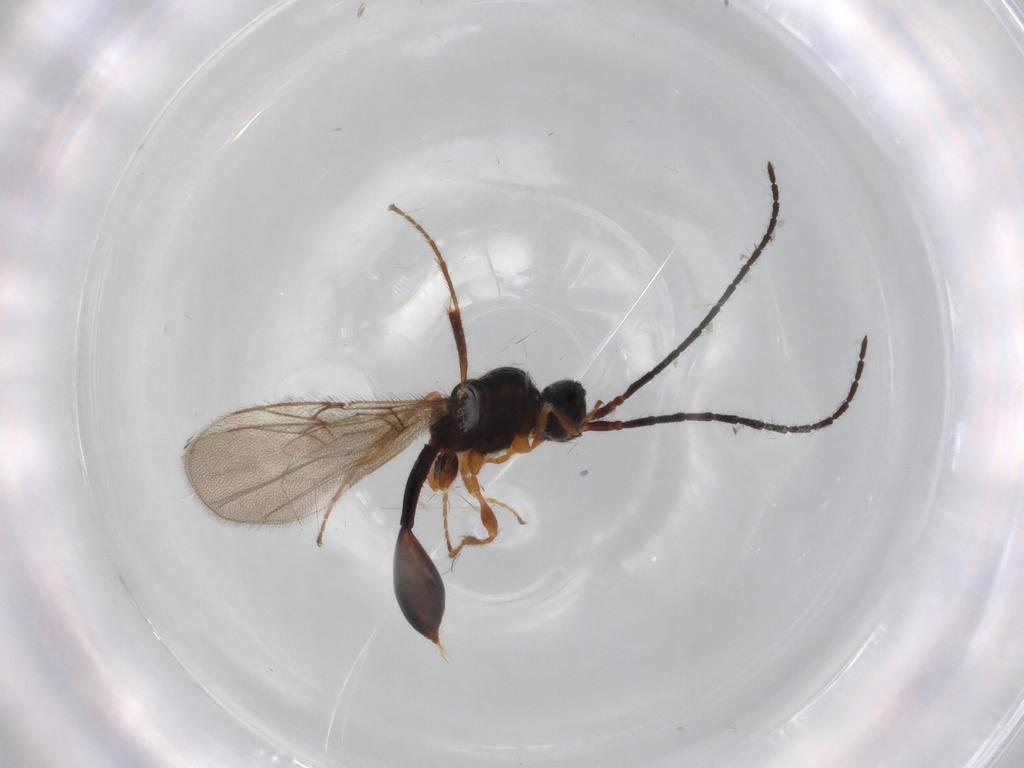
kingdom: Animalia
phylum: Arthropoda
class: Insecta
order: Hymenoptera
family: Diapriidae
